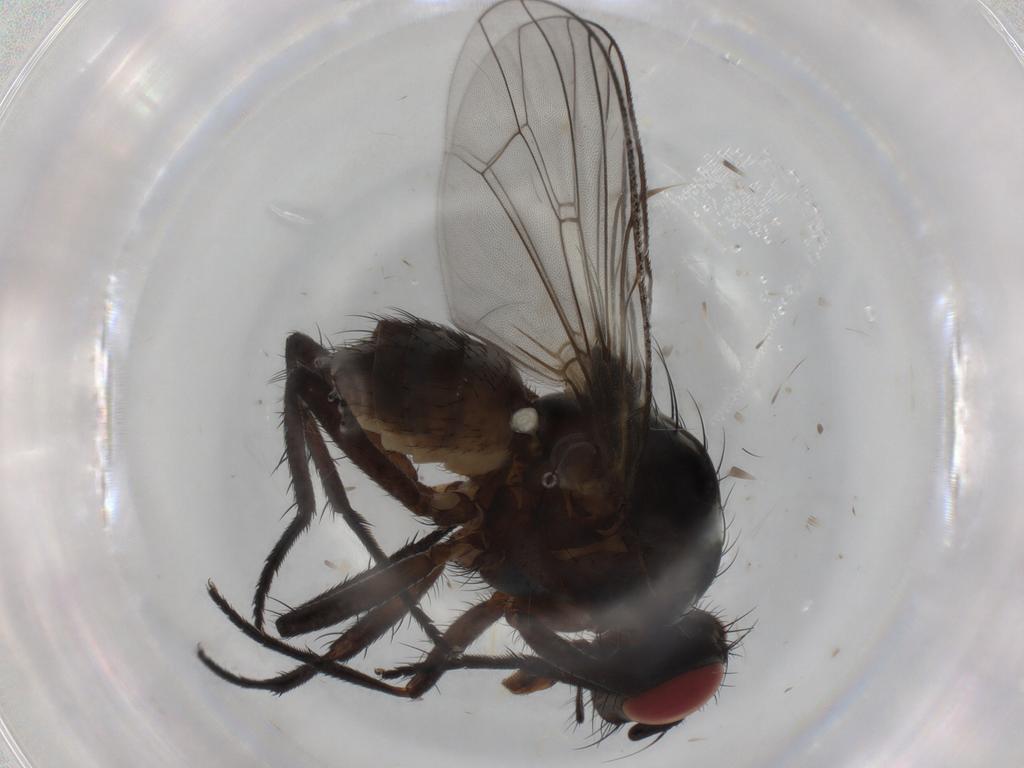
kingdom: Animalia
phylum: Arthropoda
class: Insecta
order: Diptera
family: Anthomyiidae
